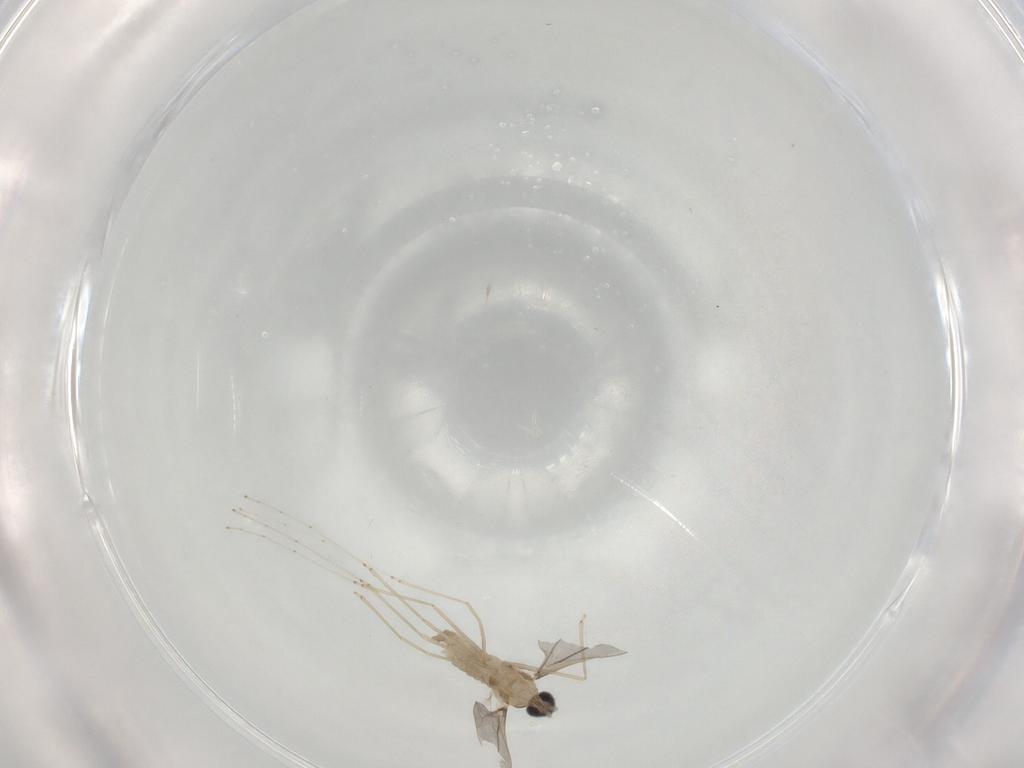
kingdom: Animalia
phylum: Arthropoda
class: Insecta
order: Diptera
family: Cecidomyiidae
